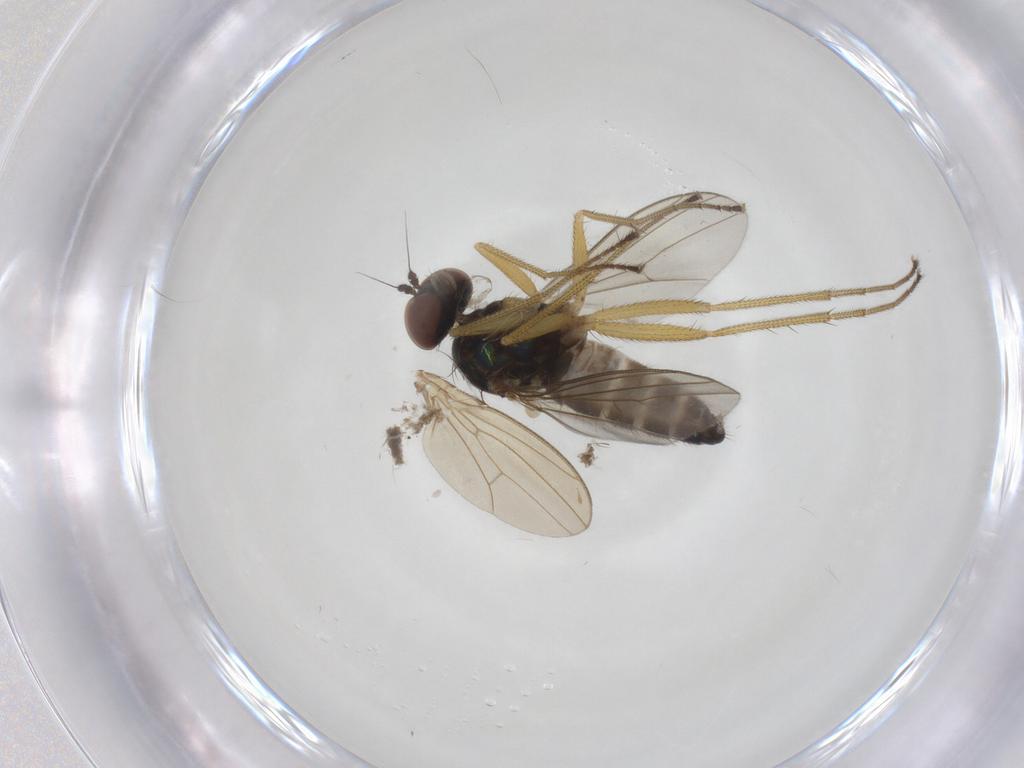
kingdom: Animalia
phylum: Arthropoda
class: Insecta
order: Diptera
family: Dolichopodidae
